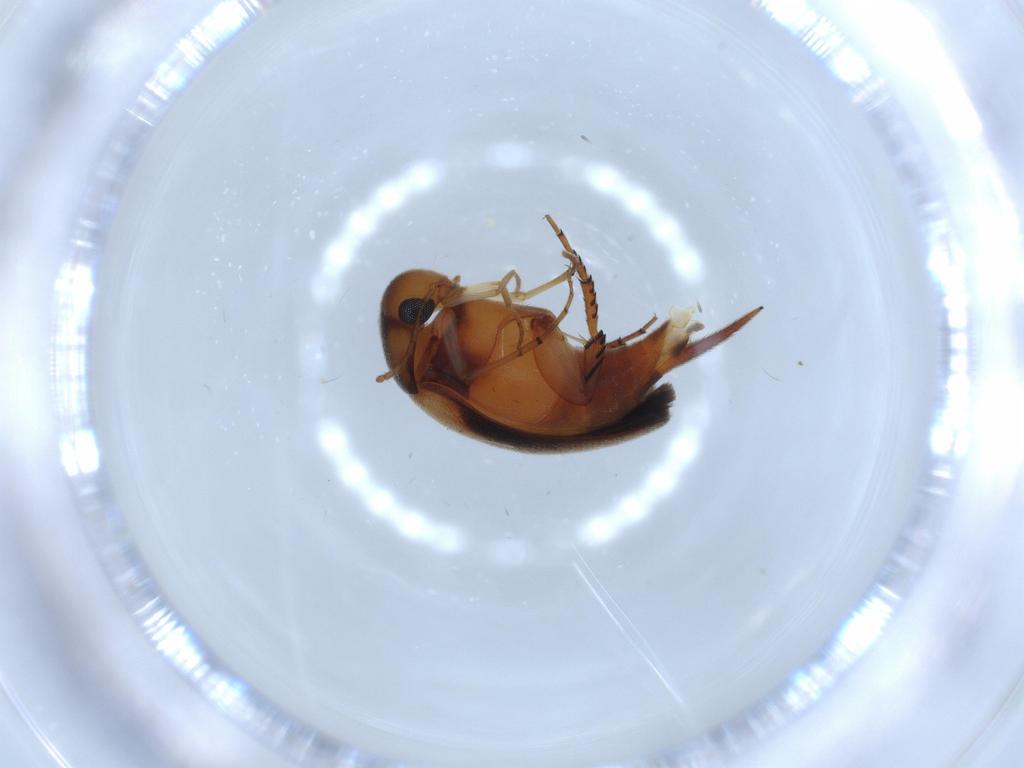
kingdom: Animalia
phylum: Arthropoda
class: Insecta
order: Coleoptera
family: Mordellidae
